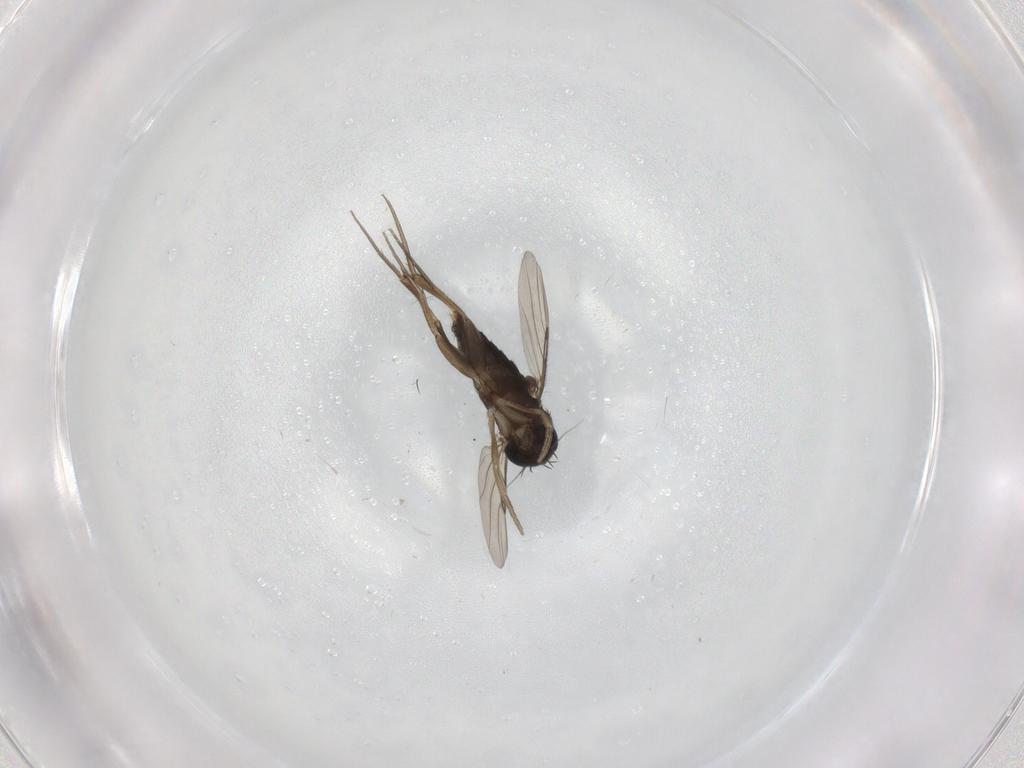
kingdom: Animalia
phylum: Arthropoda
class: Insecta
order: Diptera
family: Phoridae
